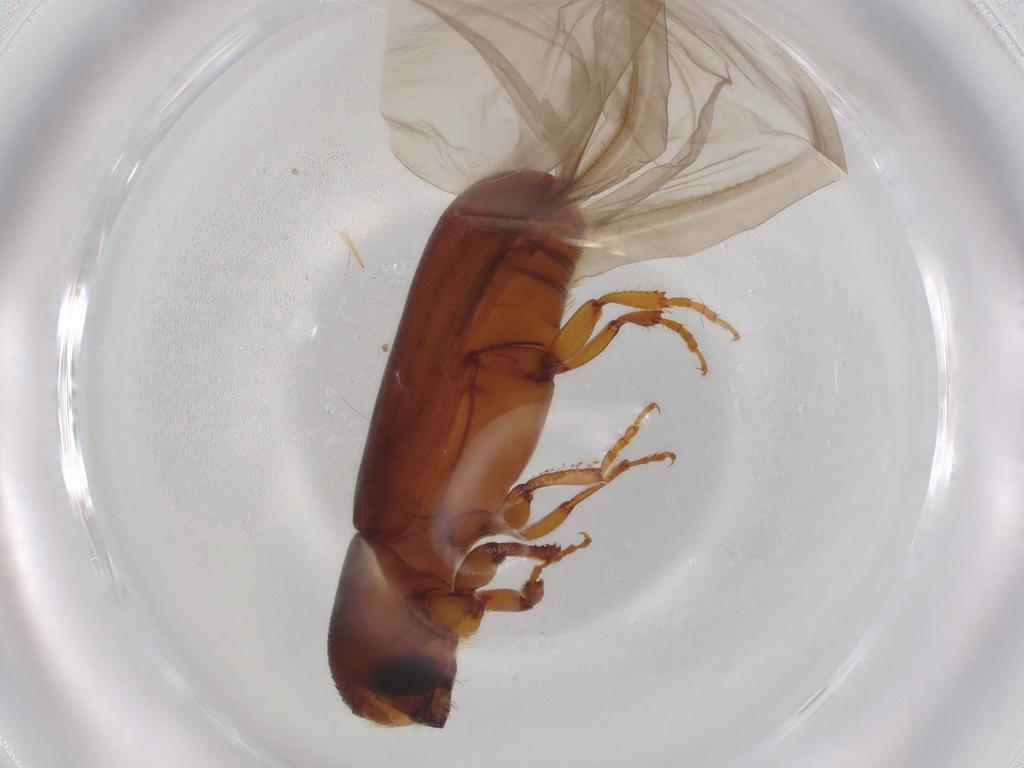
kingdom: Animalia
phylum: Arthropoda
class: Insecta
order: Coleoptera
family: Curculionidae
